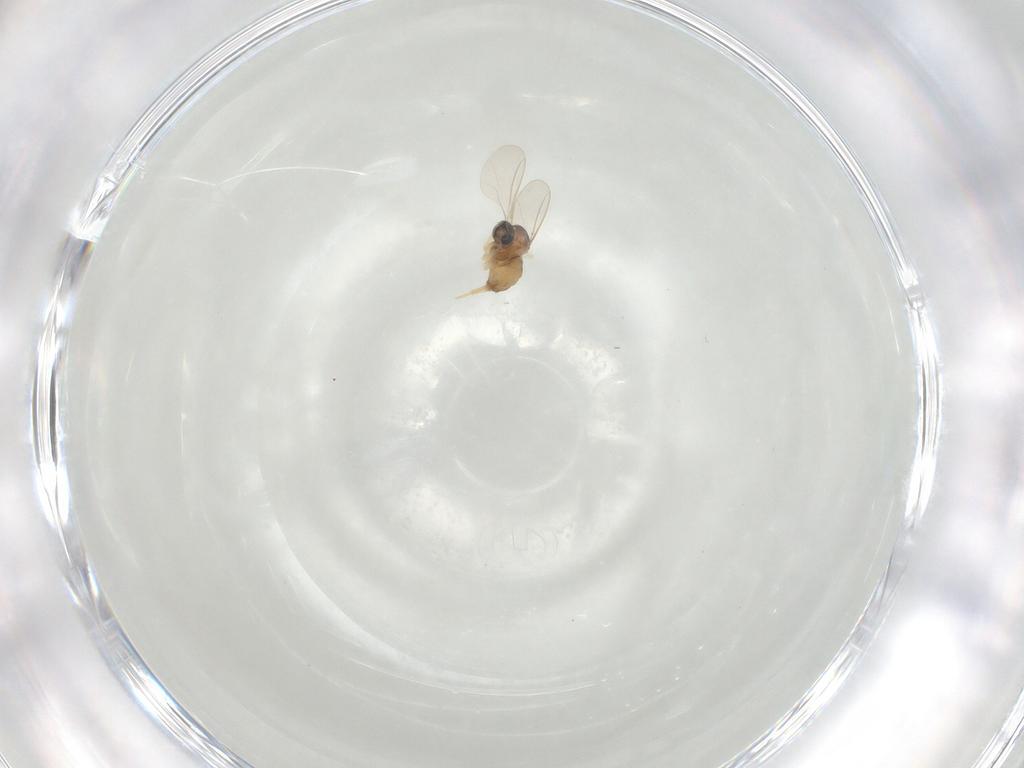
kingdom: Animalia
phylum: Arthropoda
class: Insecta
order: Diptera
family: Cecidomyiidae
